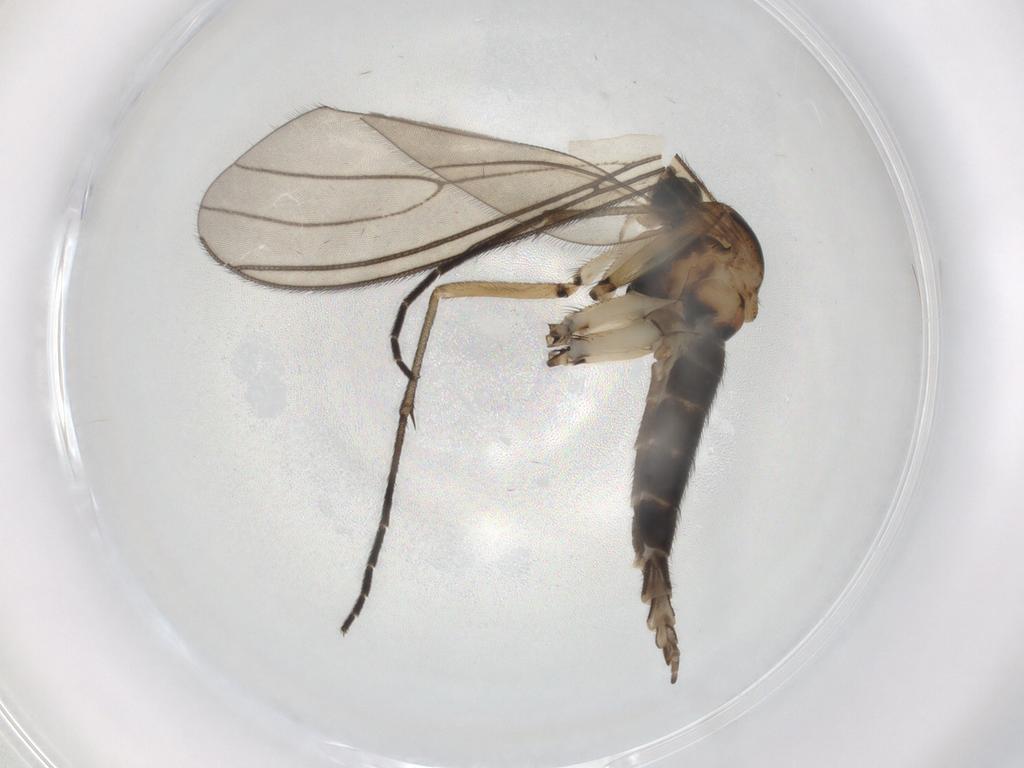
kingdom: Animalia
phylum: Arthropoda
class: Insecta
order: Diptera
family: Sciaridae
